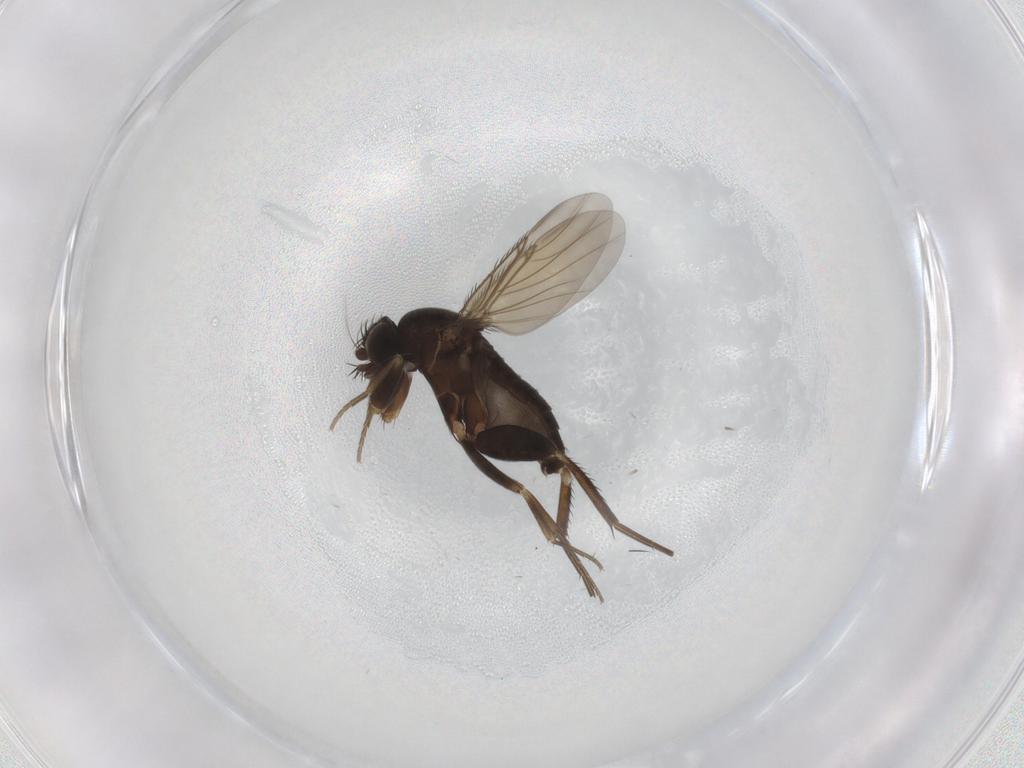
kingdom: Animalia
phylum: Arthropoda
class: Insecta
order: Diptera
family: Phoridae
